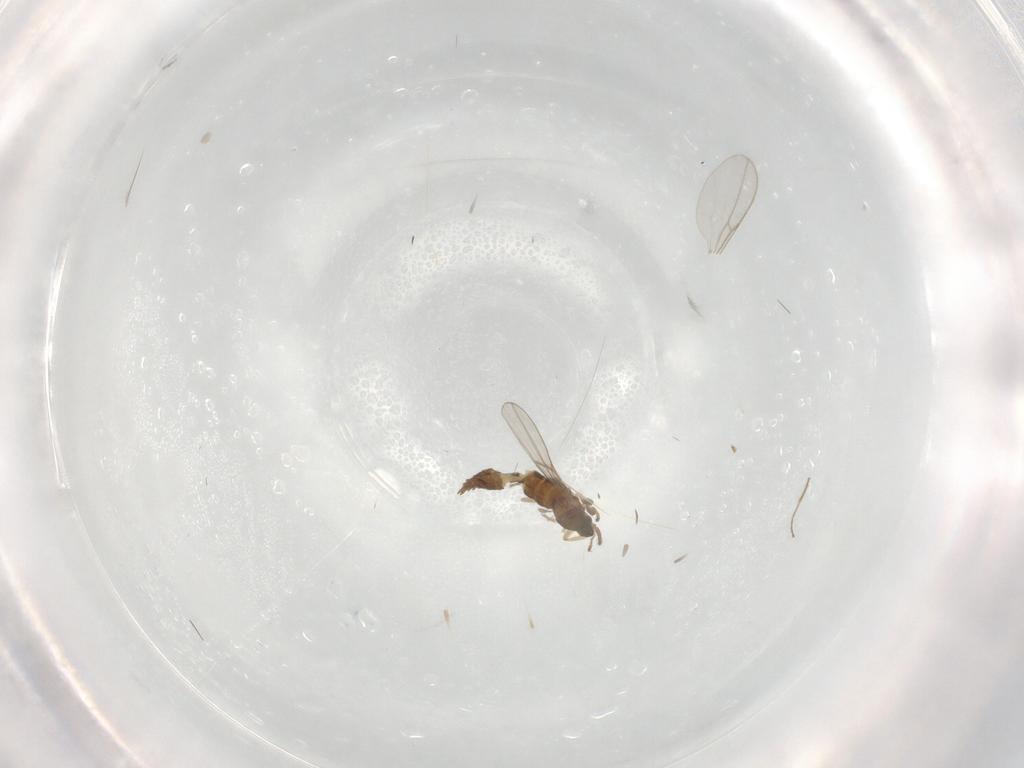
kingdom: Animalia
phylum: Arthropoda
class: Insecta
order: Diptera
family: Cecidomyiidae
